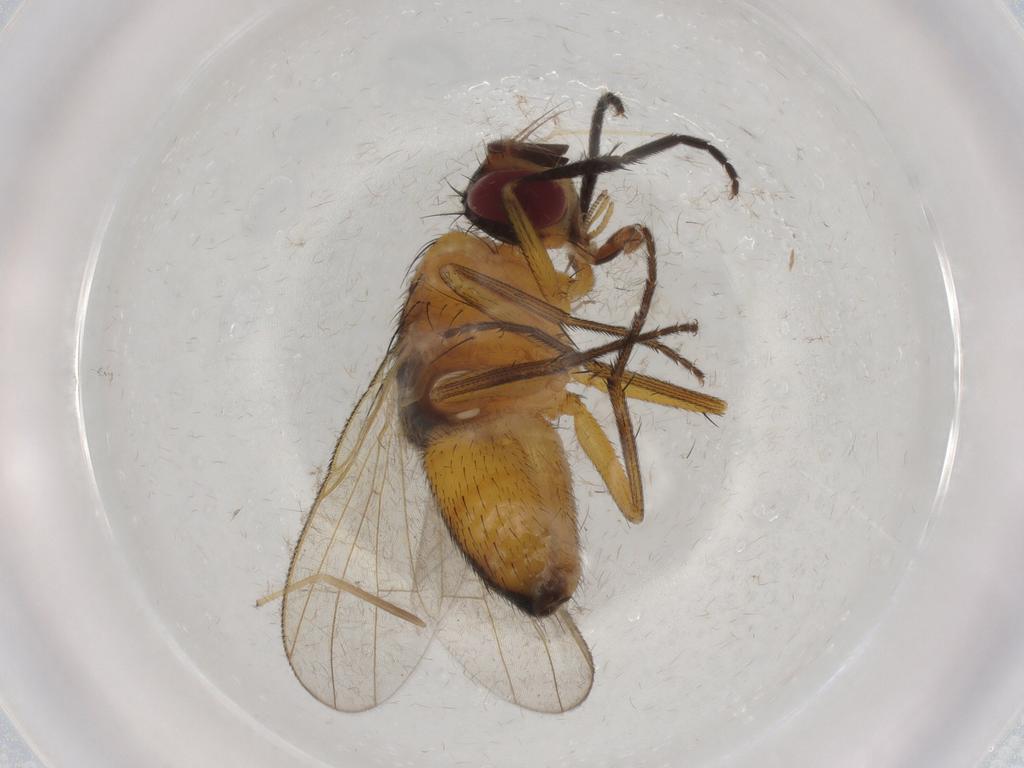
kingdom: Animalia
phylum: Arthropoda
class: Insecta
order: Diptera
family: Muscidae
